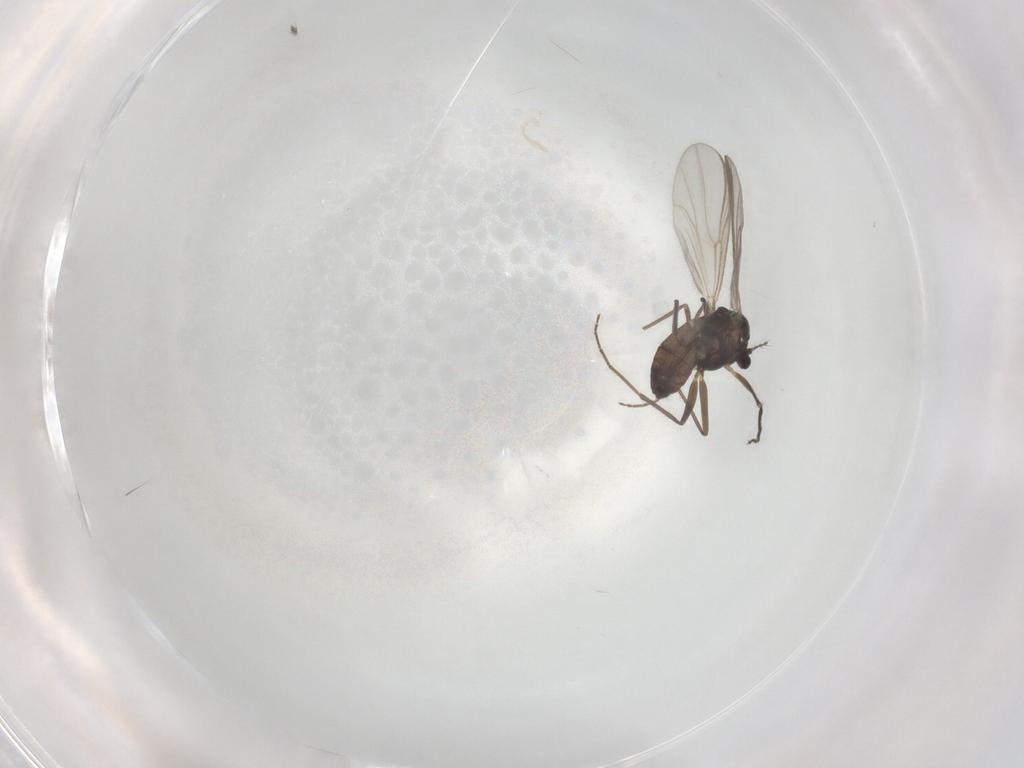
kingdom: Animalia
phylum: Arthropoda
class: Insecta
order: Diptera
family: Chironomidae
